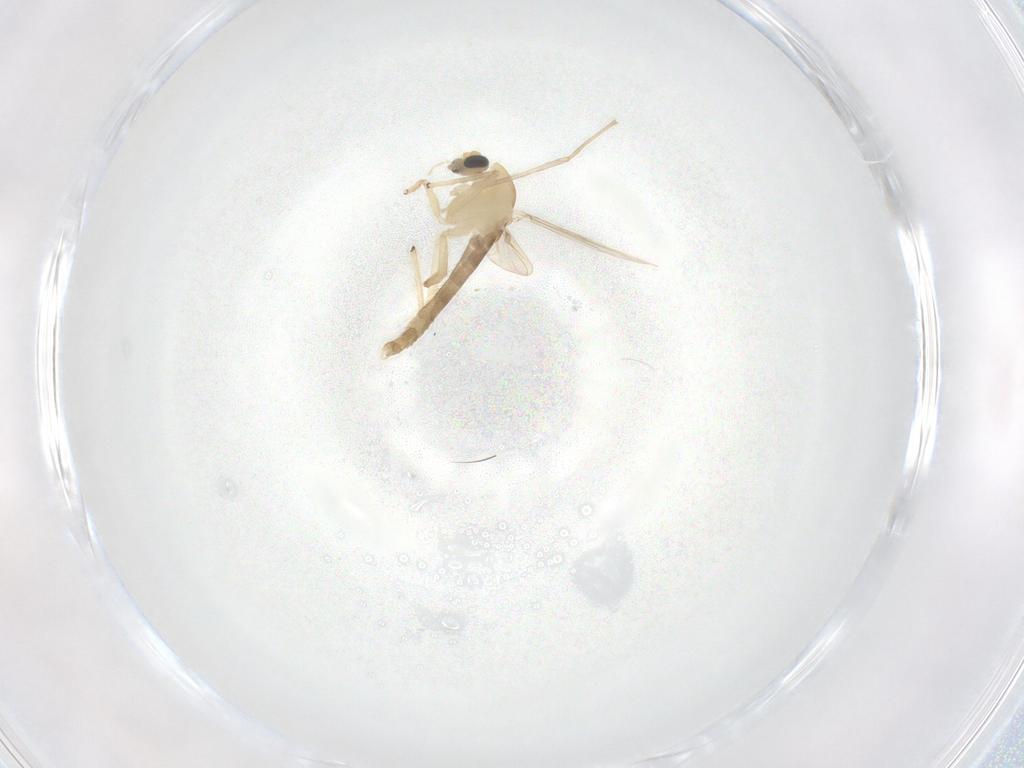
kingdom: Animalia
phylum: Arthropoda
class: Insecta
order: Diptera
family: Chironomidae
